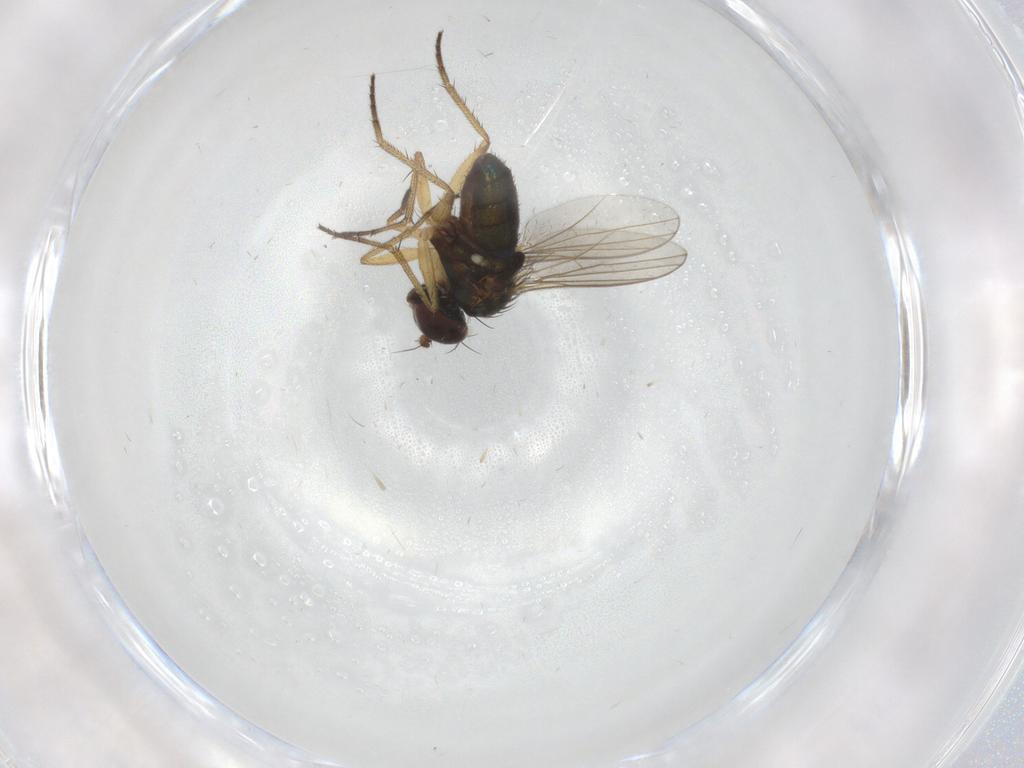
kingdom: Animalia
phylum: Arthropoda
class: Insecta
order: Diptera
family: Dolichopodidae
